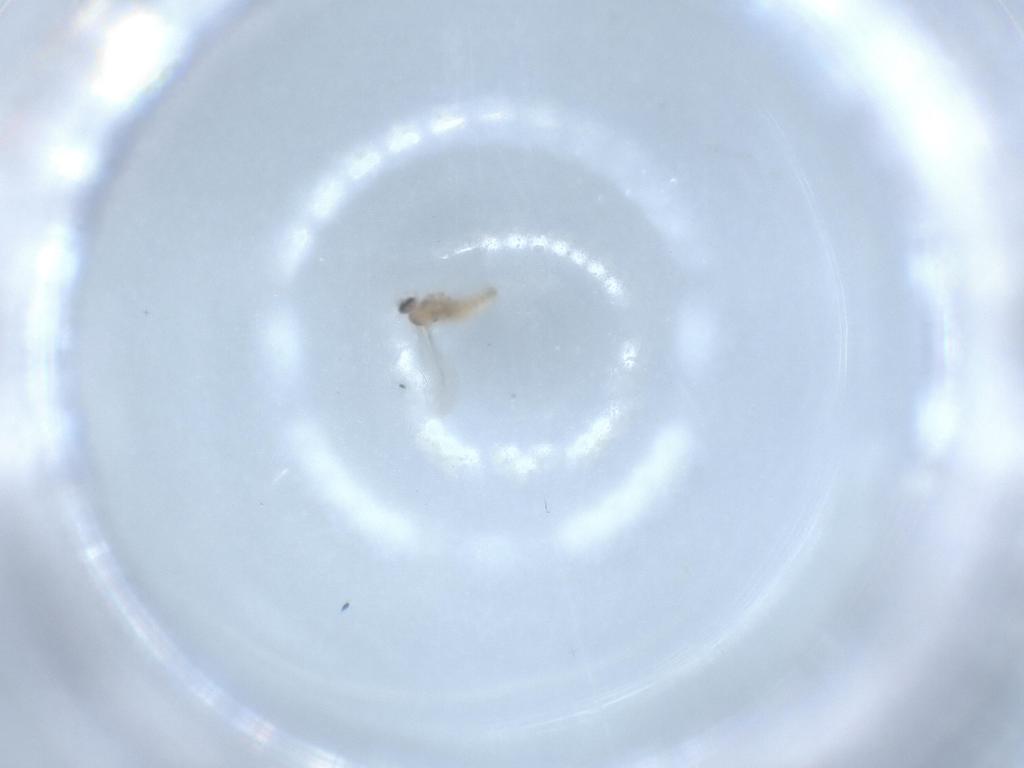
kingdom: Animalia
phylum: Arthropoda
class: Insecta
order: Diptera
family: Cecidomyiidae
